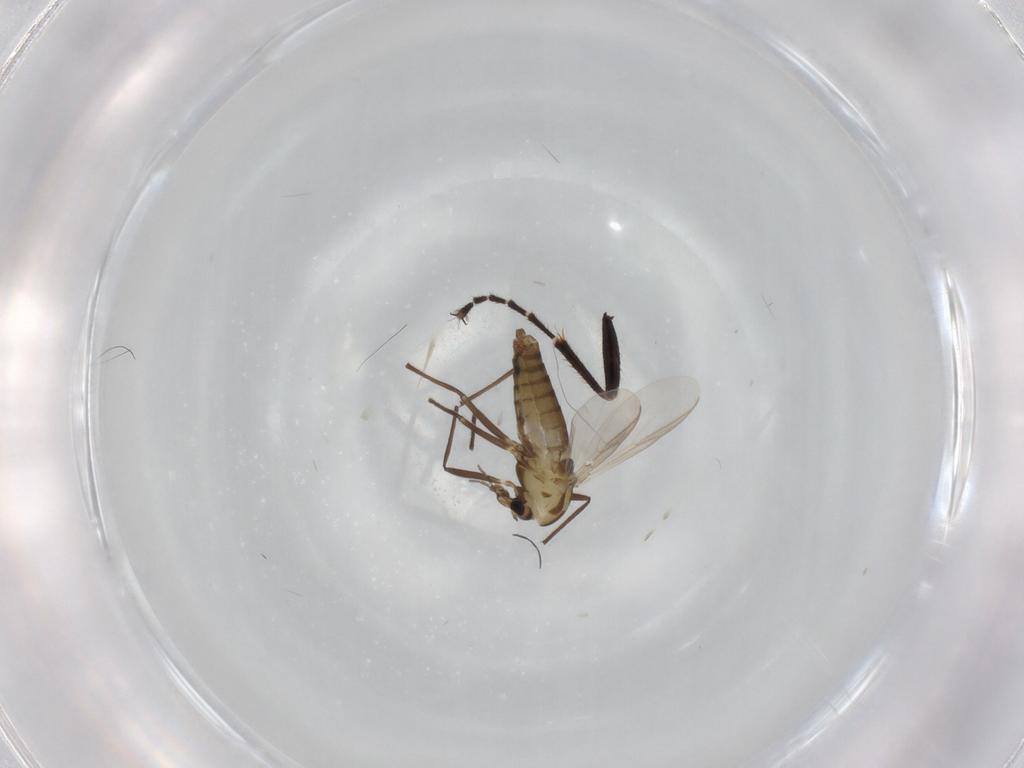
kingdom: Animalia
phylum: Arthropoda
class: Insecta
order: Diptera
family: Chironomidae
